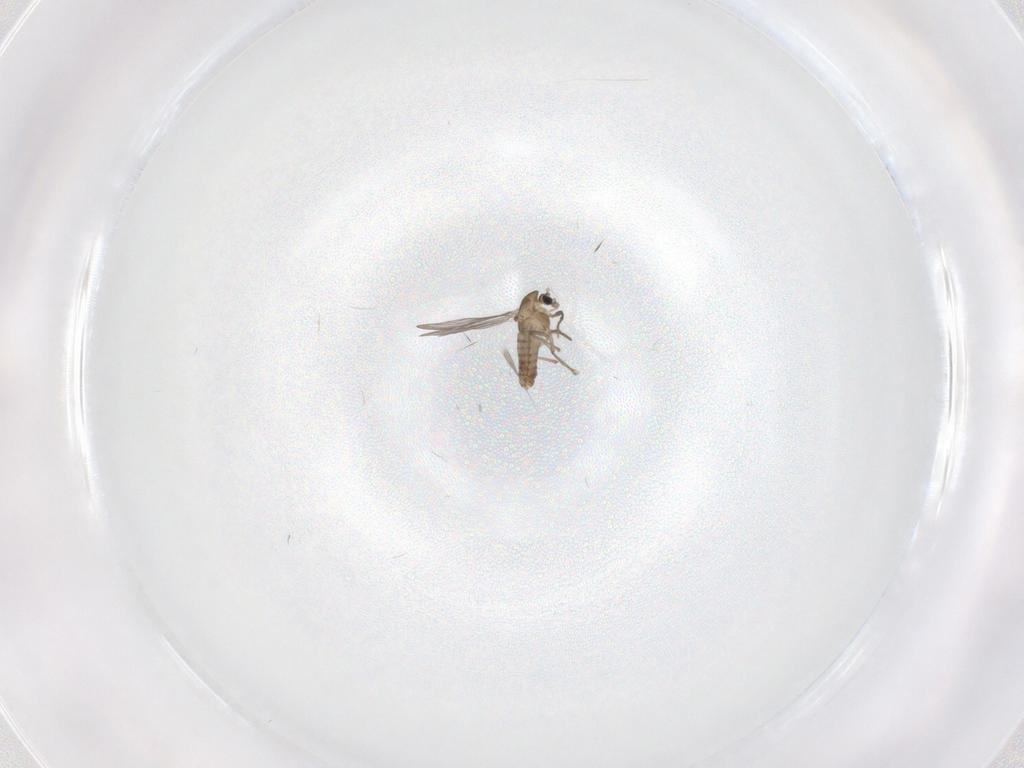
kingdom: Animalia
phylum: Arthropoda
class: Insecta
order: Diptera
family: Chironomidae
